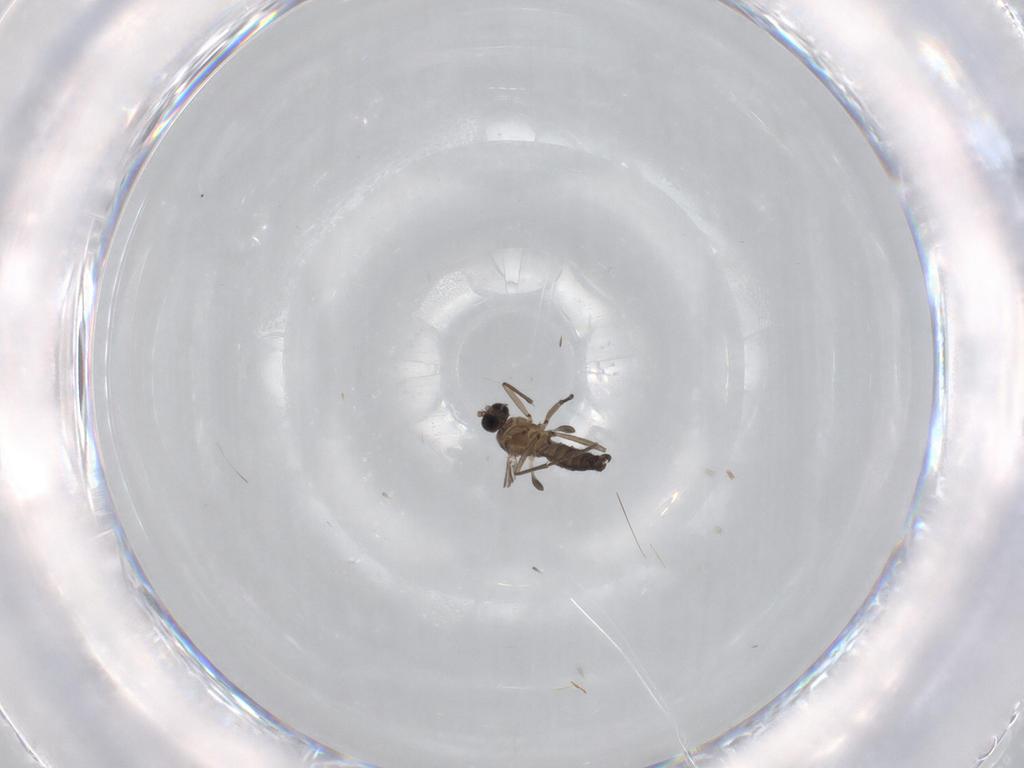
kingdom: Animalia
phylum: Arthropoda
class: Insecta
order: Diptera
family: Sciaridae
